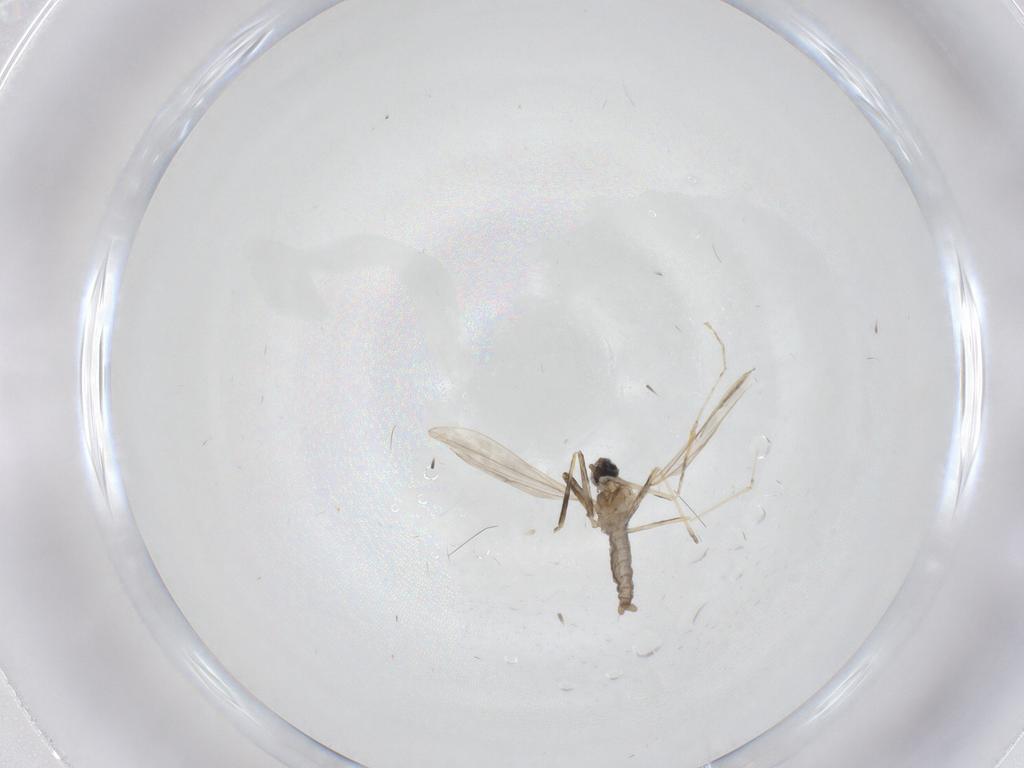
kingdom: Animalia
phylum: Arthropoda
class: Insecta
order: Diptera
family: Cecidomyiidae
